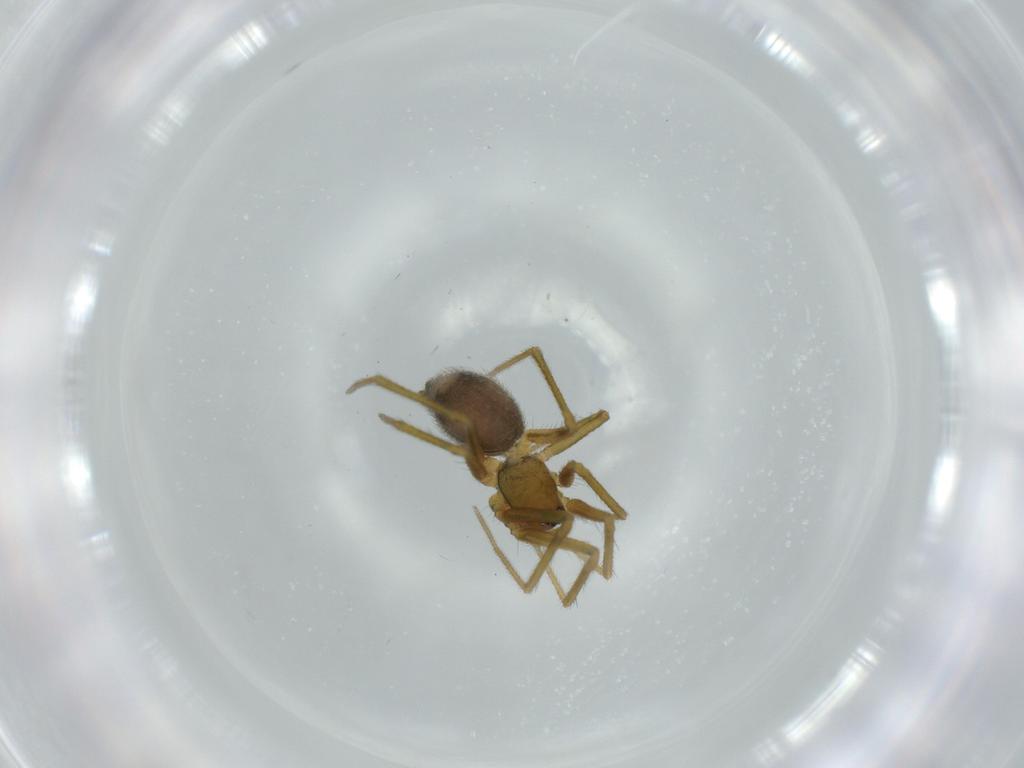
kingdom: Animalia
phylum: Arthropoda
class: Arachnida
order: Araneae
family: Linyphiidae
